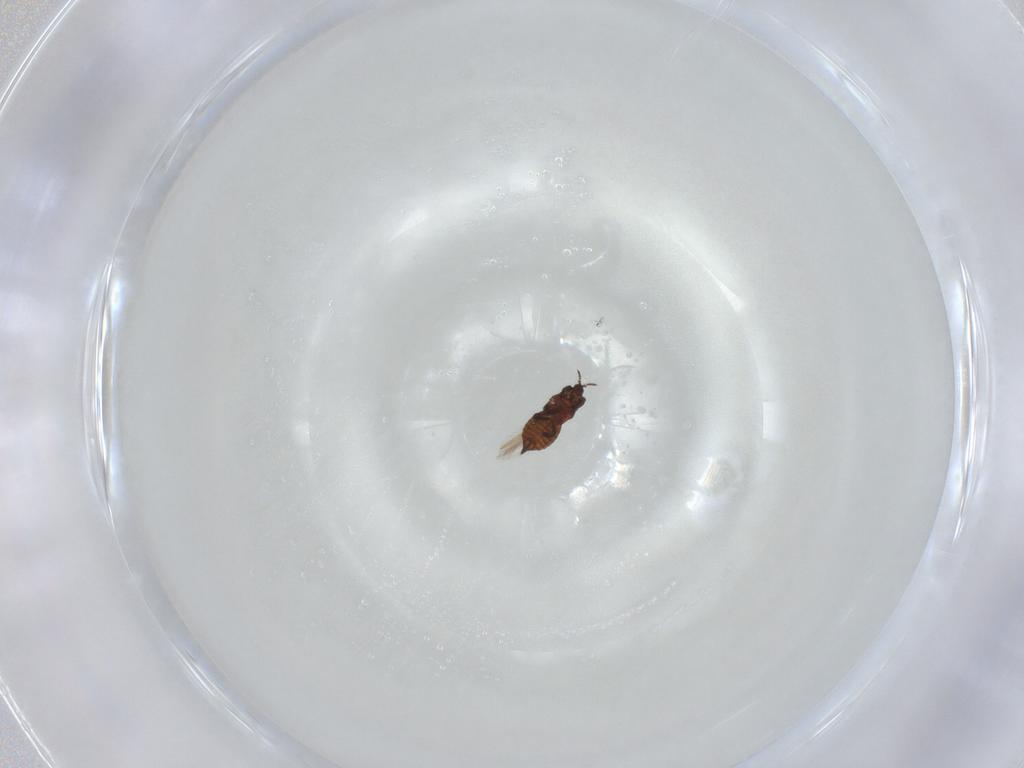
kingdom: Animalia
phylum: Arthropoda
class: Insecta
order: Thysanoptera
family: Thripidae
